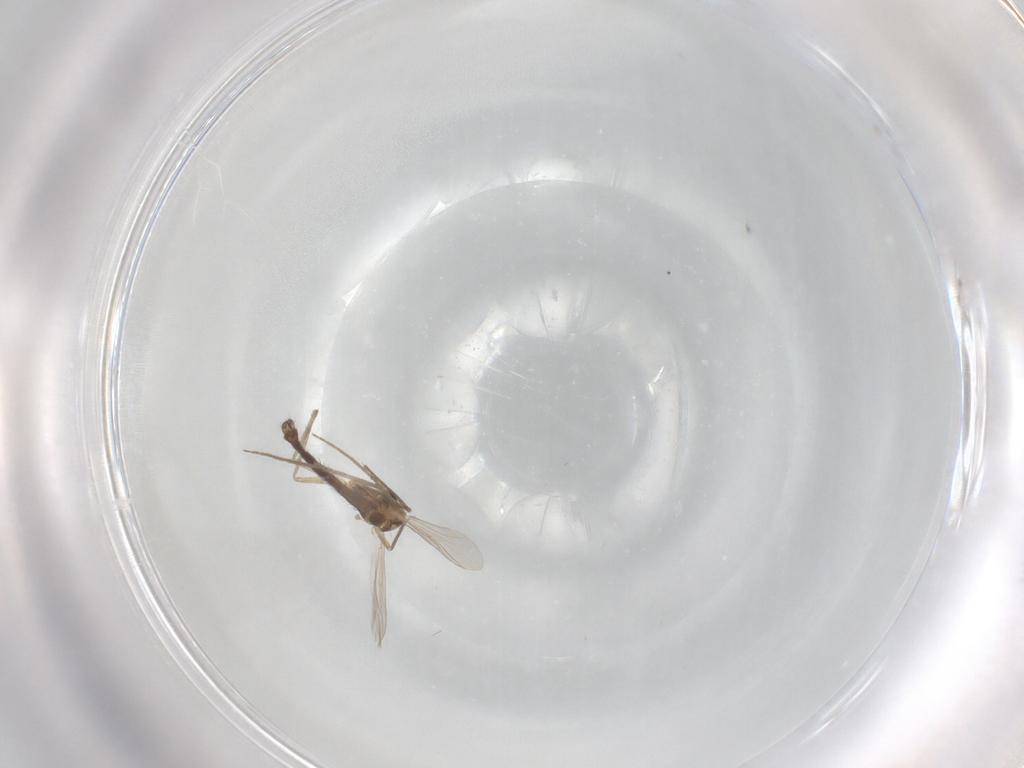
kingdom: Animalia
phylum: Arthropoda
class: Insecta
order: Diptera
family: Ceratopogonidae
